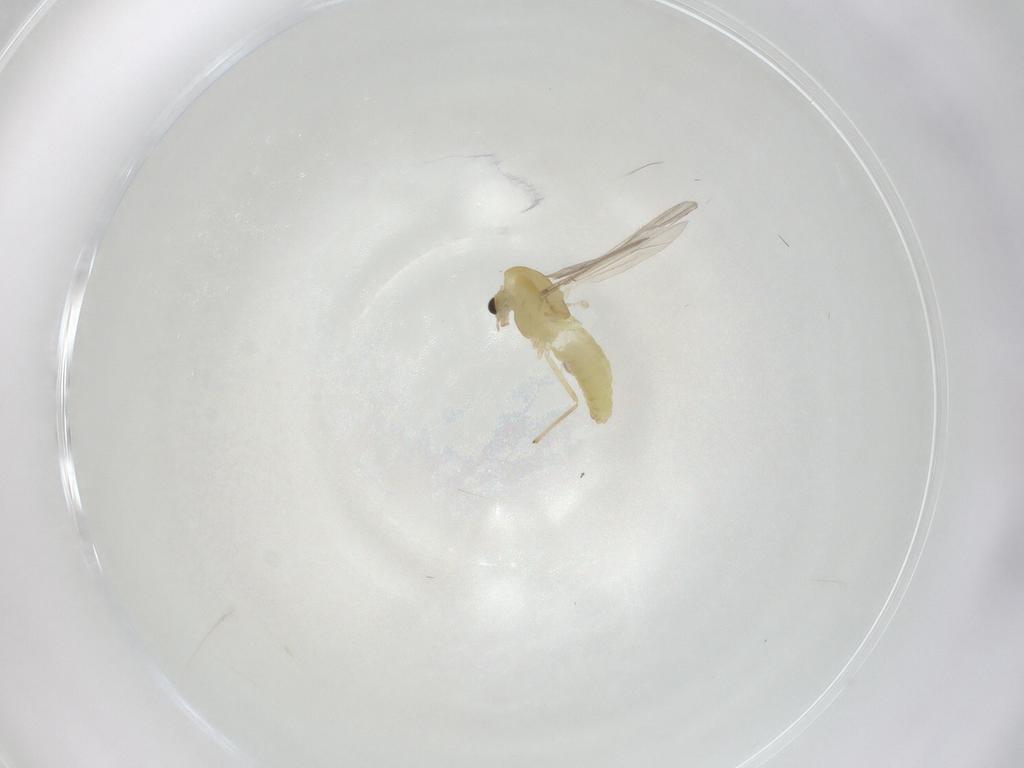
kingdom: Animalia
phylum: Arthropoda
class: Insecta
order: Diptera
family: Chironomidae
